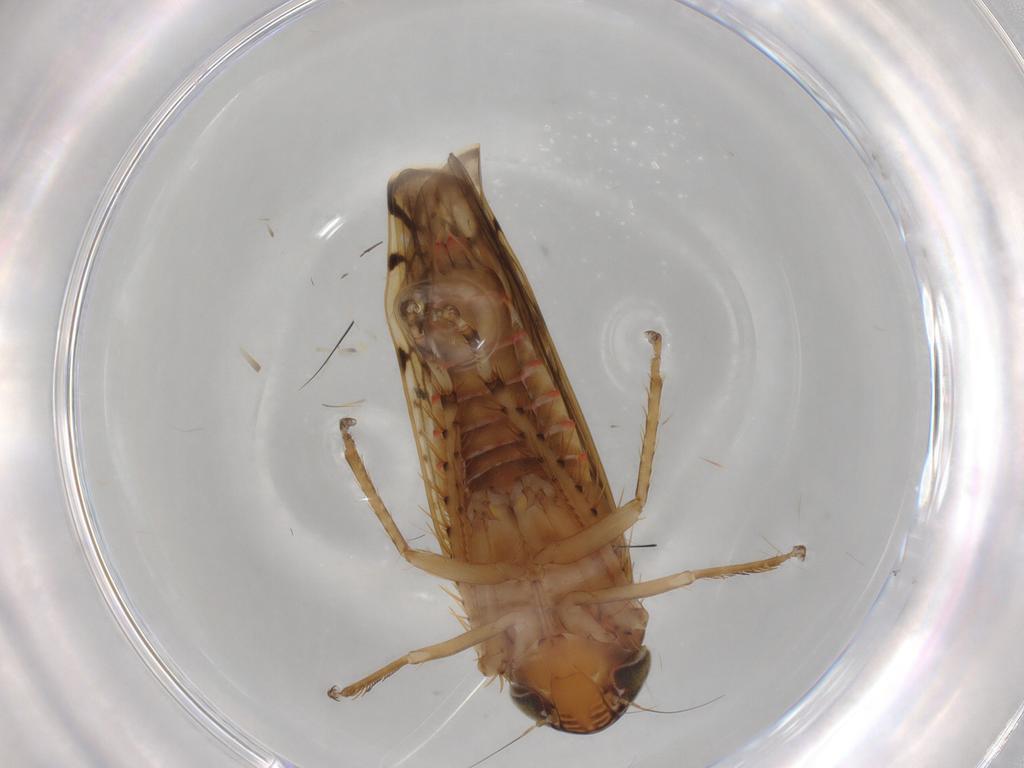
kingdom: Animalia
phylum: Arthropoda
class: Insecta
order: Hemiptera
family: Cicadellidae
